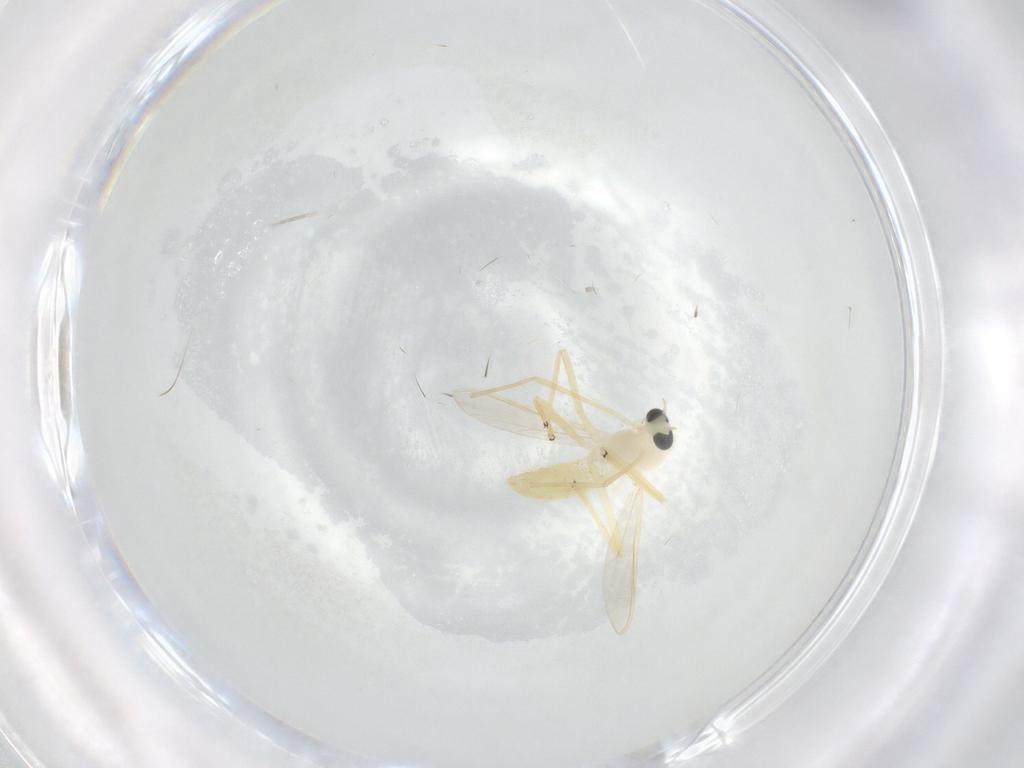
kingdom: Animalia
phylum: Arthropoda
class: Insecta
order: Diptera
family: Chironomidae
